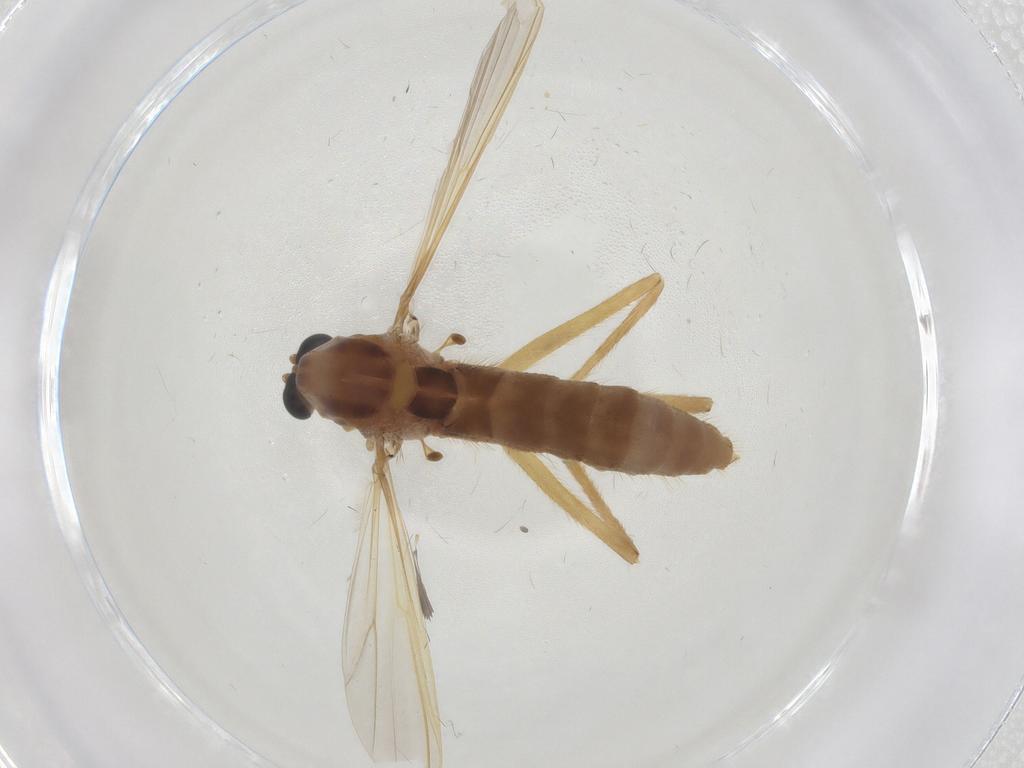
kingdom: Animalia
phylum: Arthropoda
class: Insecta
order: Diptera
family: Chironomidae
